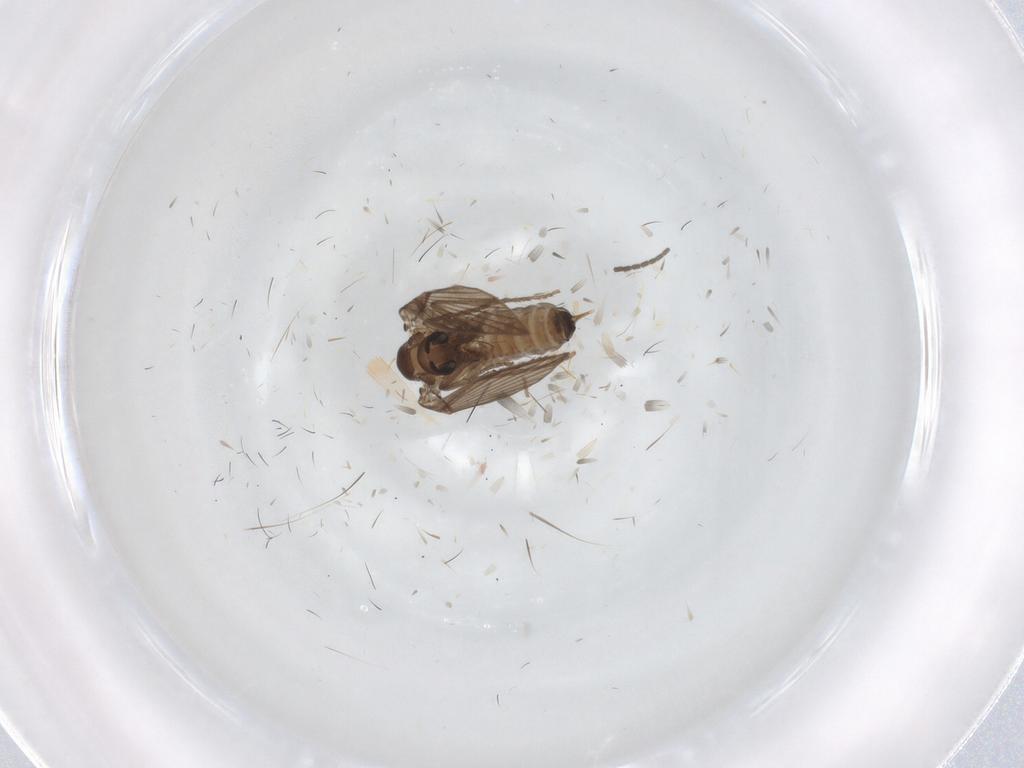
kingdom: Animalia
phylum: Arthropoda
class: Insecta
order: Diptera
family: Psychodidae
